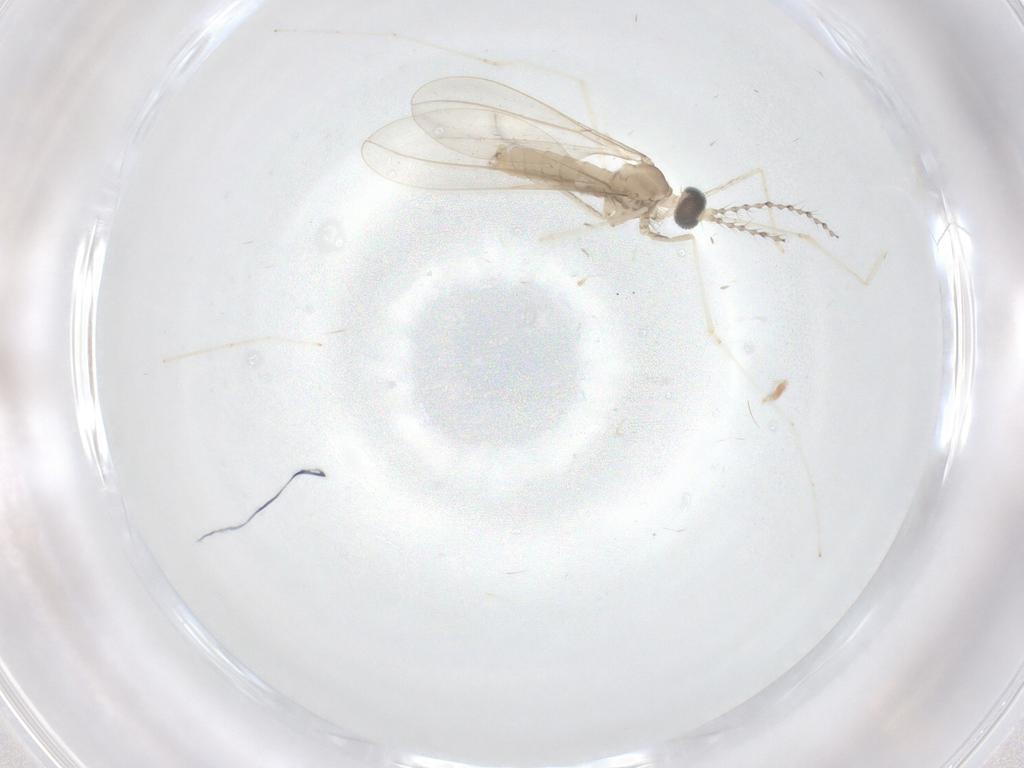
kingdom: Animalia
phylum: Arthropoda
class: Insecta
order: Diptera
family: Cecidomyiidae
